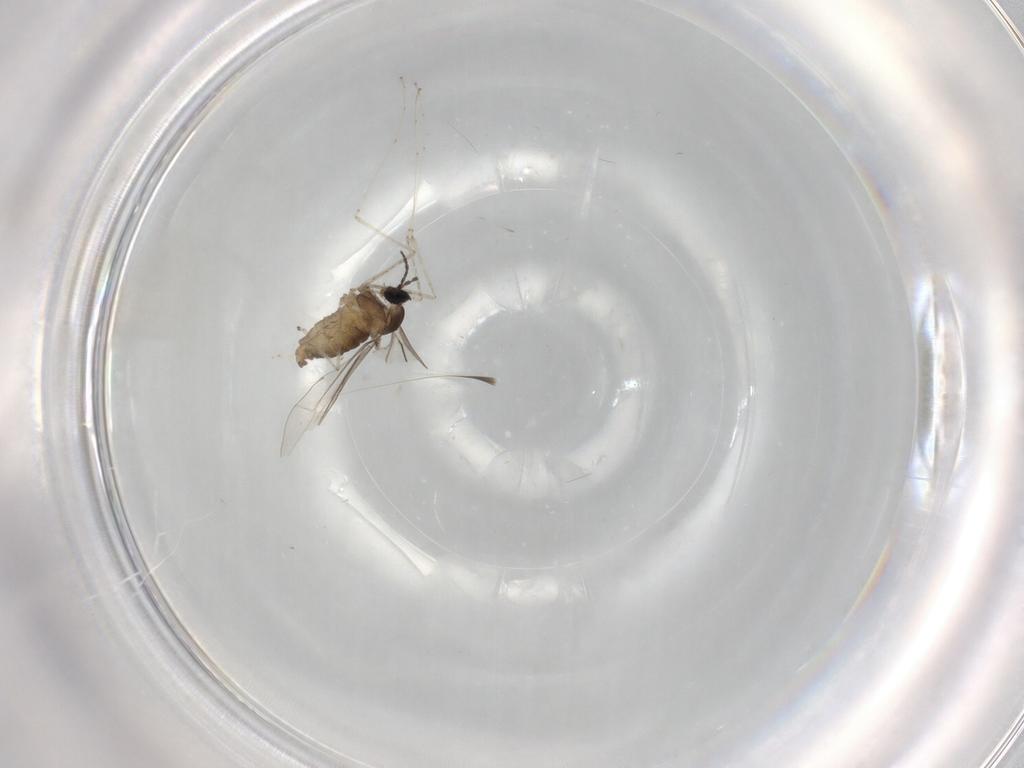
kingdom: Animalia
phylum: Arthropoda
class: Insecta
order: Diptera
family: Cecidomyiidae
